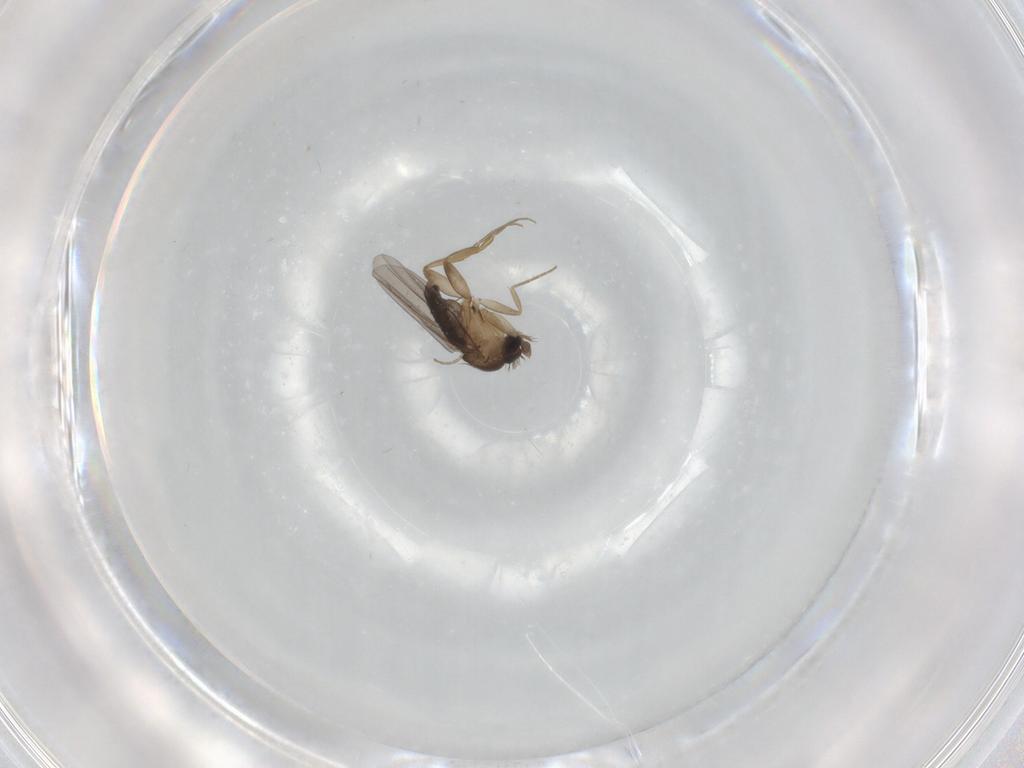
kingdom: Animalia
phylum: Arthropoda
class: Insecta
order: Diptera
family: Phoridae
